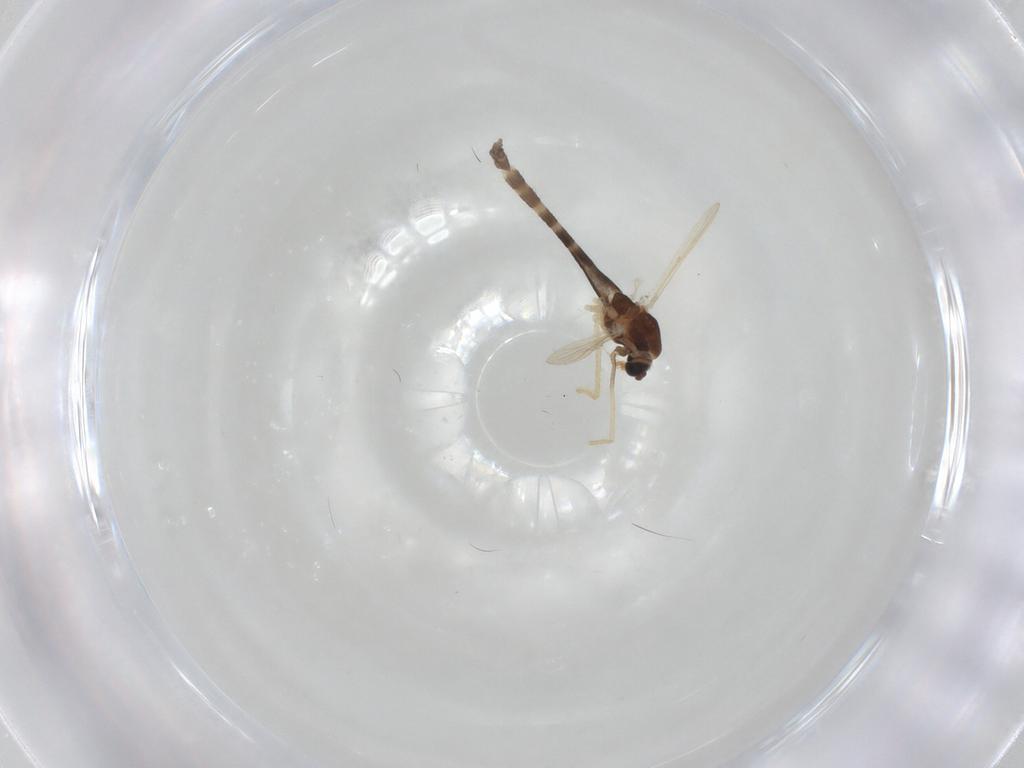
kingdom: Animalia
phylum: Arthropoda
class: Insecta
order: Diptera
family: Chironomidae
